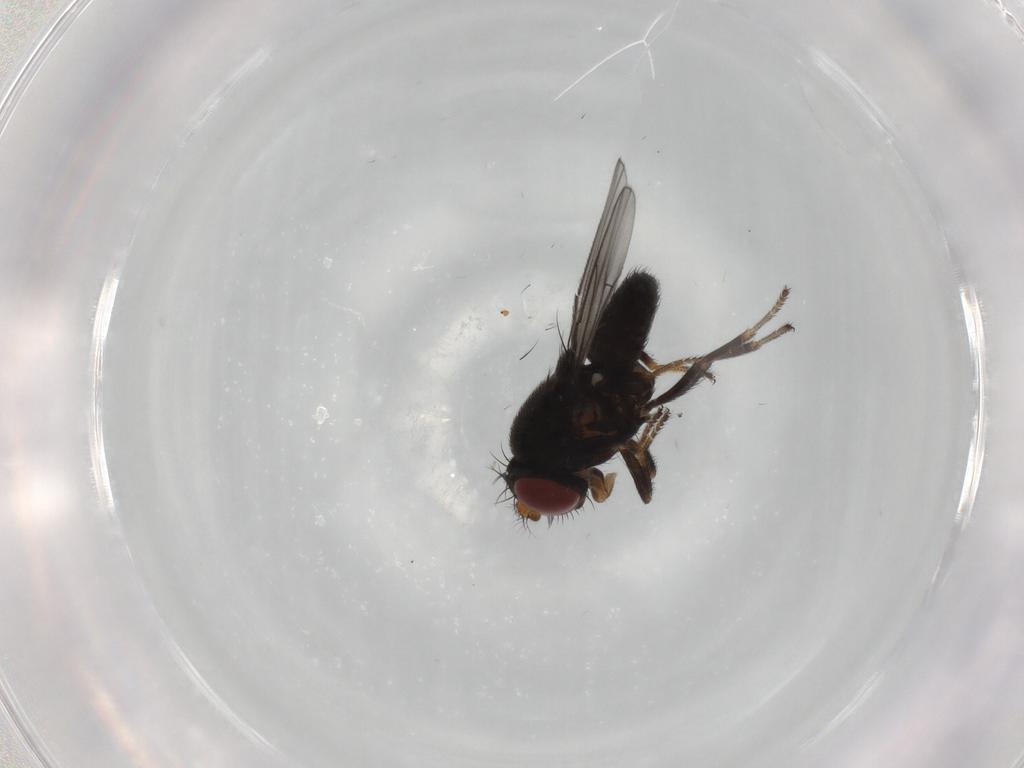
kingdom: Animalia
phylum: Arthropoda
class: Insecta
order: Diptera
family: Ephydridae
